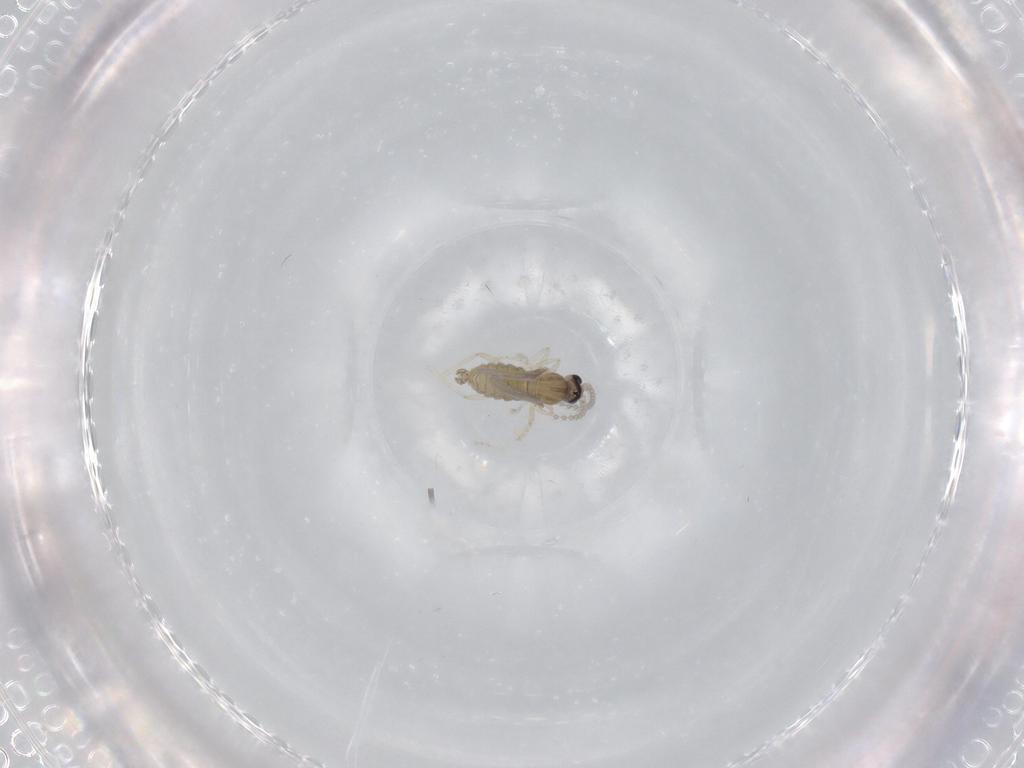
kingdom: Animalia
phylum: Arthropoda
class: Insecta
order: Diptera
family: Cecidomyiidae
